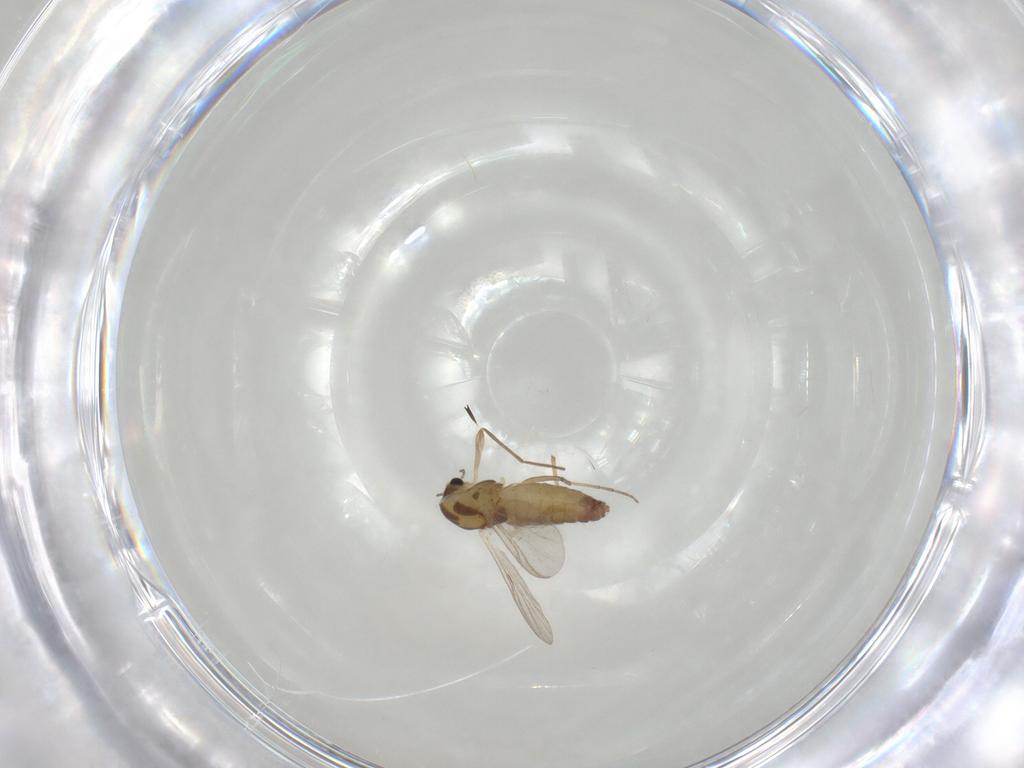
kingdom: Animalia
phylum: Arthropoda
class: Insecta
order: Diptera
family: Chironomidae
